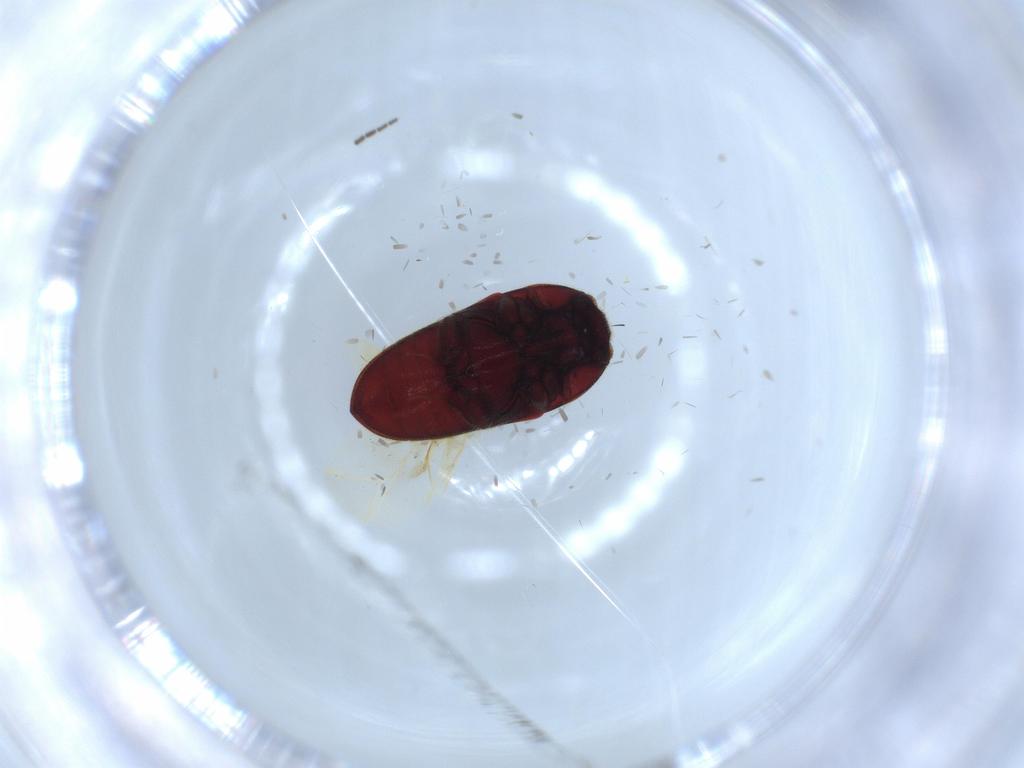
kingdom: Animalia
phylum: Arthropoda
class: Insecta
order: Coleoptera
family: Throscidae
